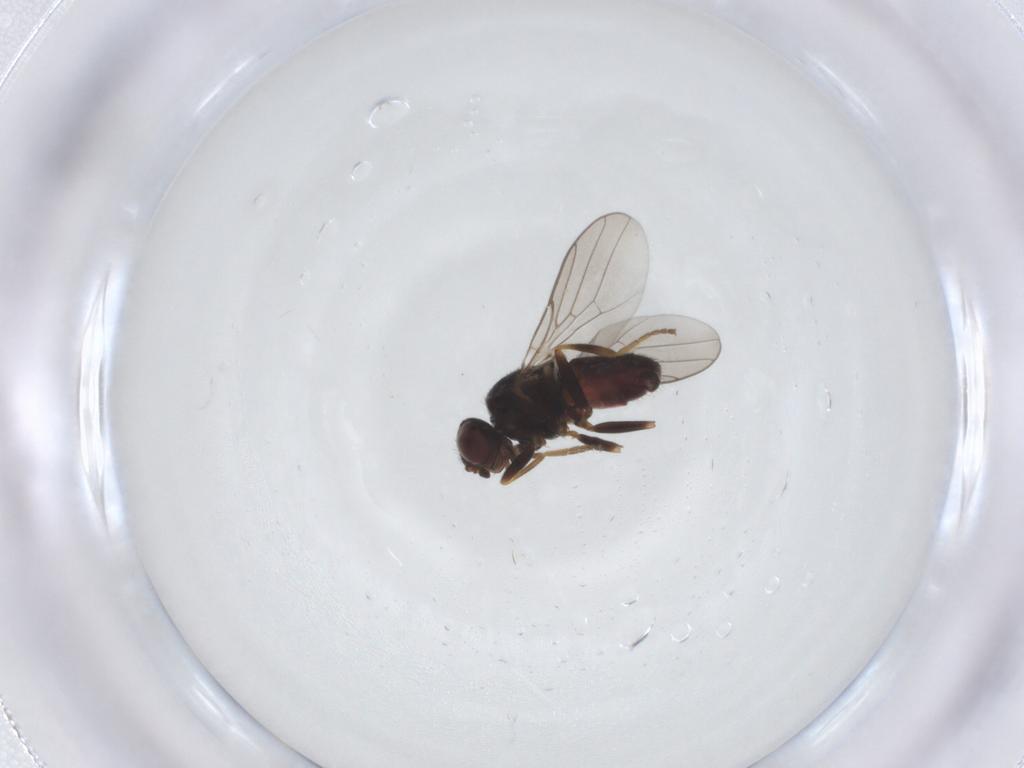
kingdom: Animalia
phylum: Arthropoda
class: Insecta
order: Diptera
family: Chloropidae
